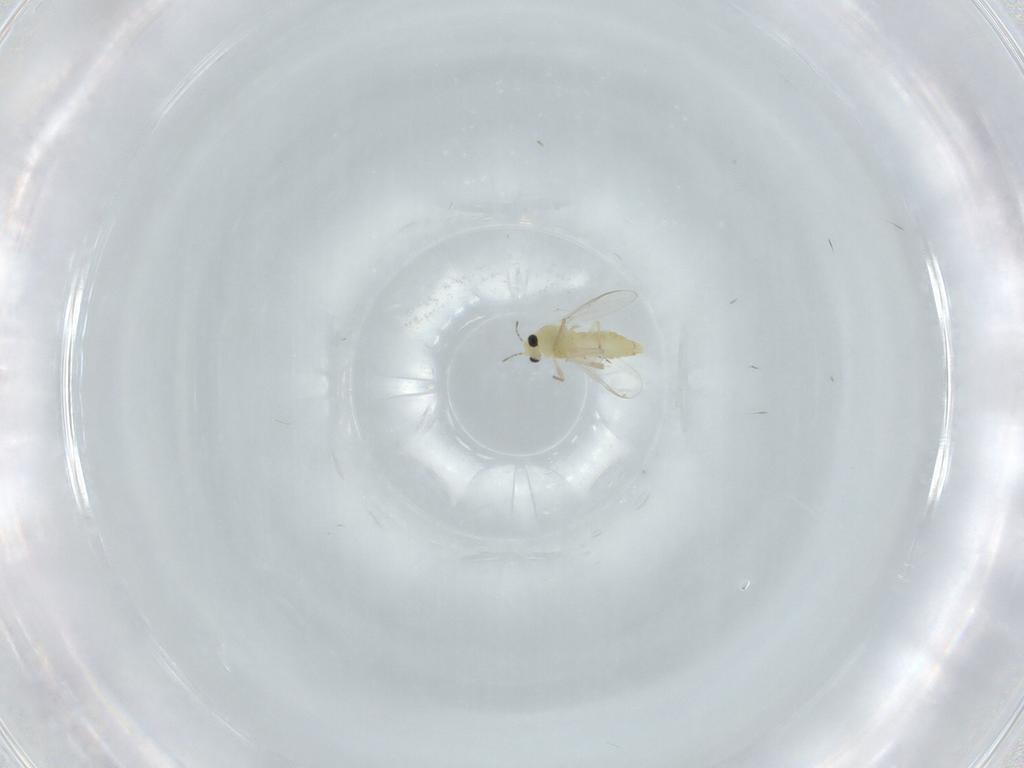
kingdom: Animalia
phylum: Arthropoda
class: Insecta
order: Diptera
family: Chironomidae
